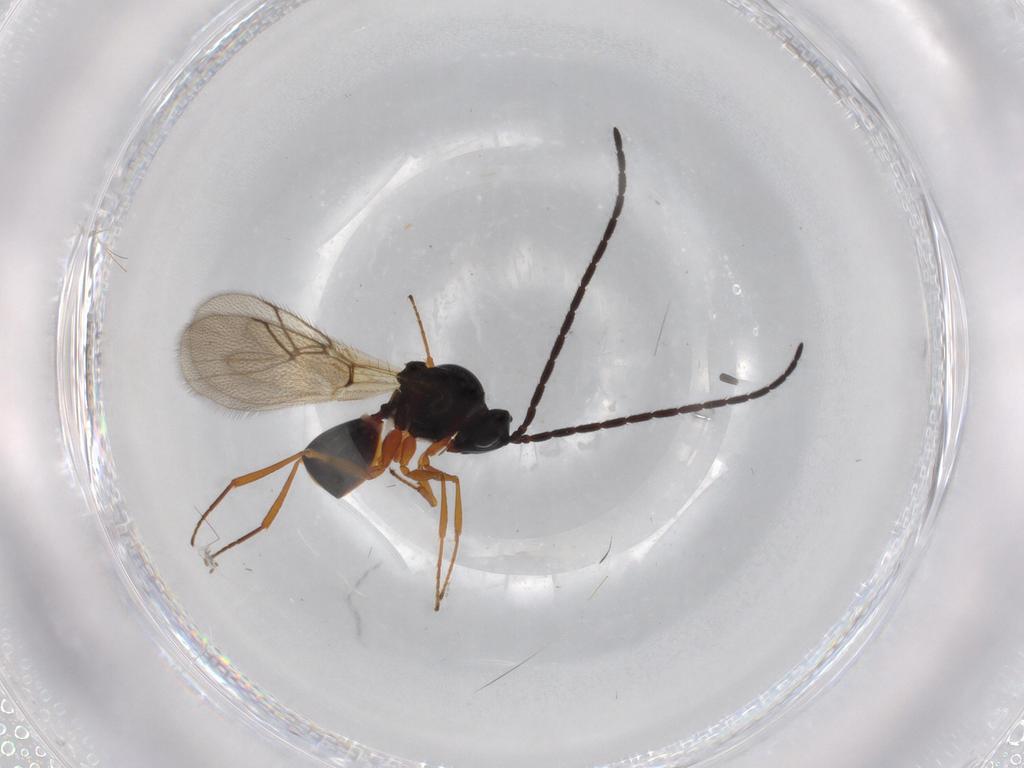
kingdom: Animalia
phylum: Arthropoda
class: Insecta
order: Hymenoptera
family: Figitidae
